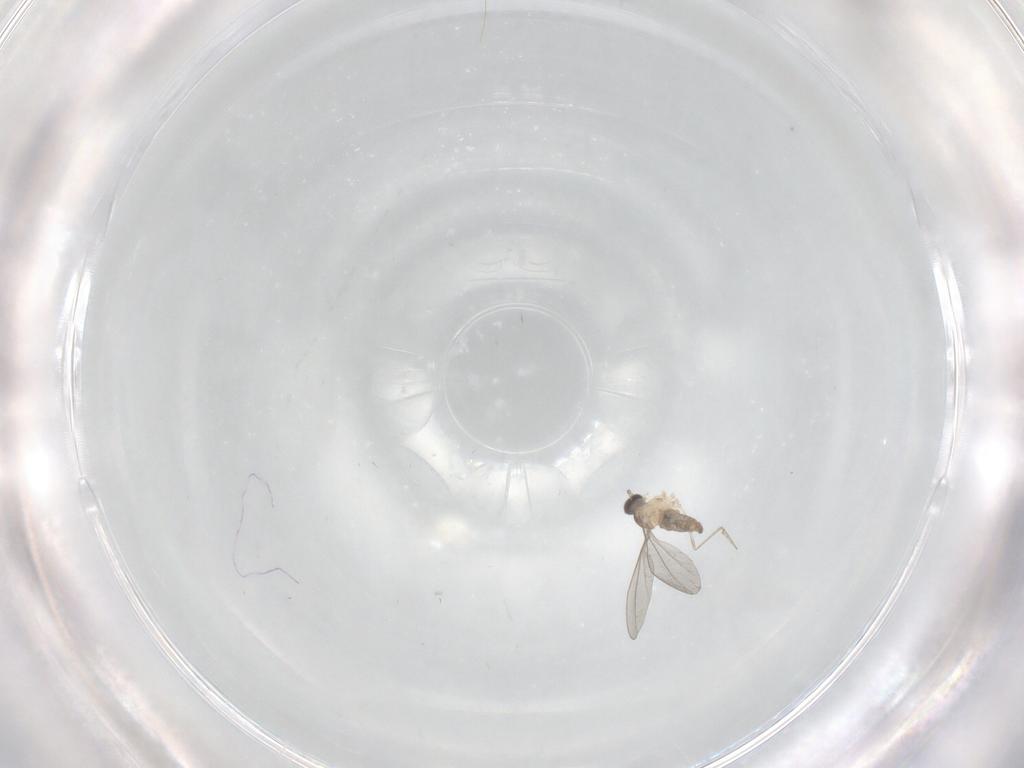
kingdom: Animalia
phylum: Arthropoda
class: Insecta
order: Diptera
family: Cecidomyiidae
